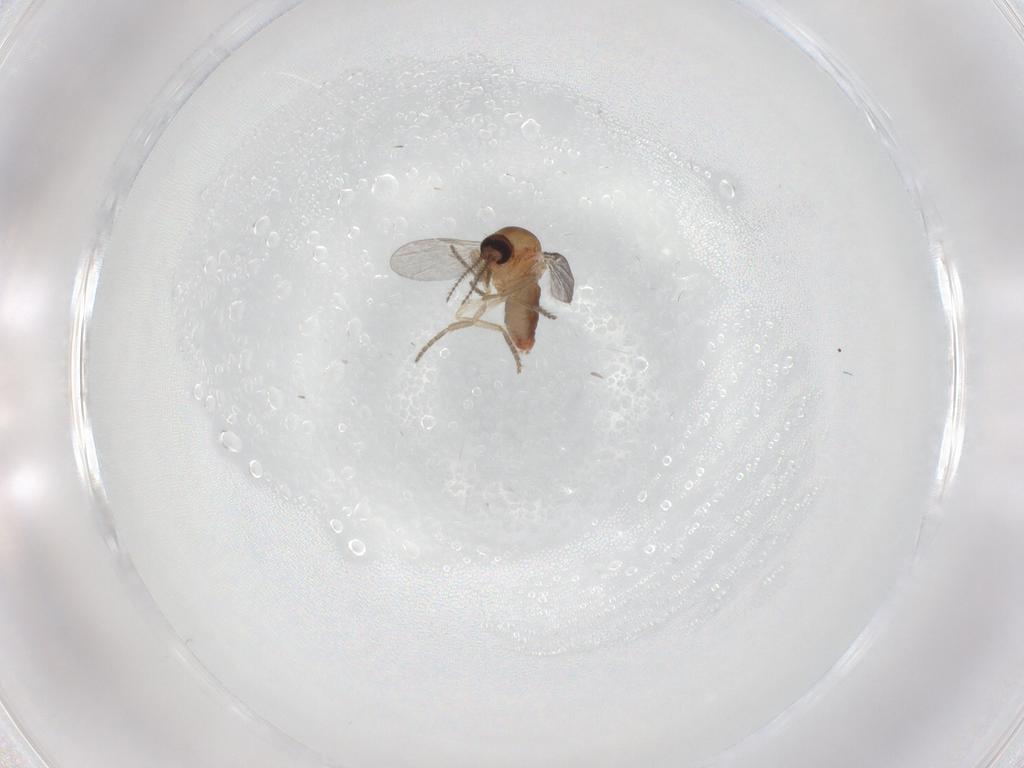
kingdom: Animalia
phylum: Arthropoda
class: Insecta
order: Diptera
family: Ceratopogonidae
